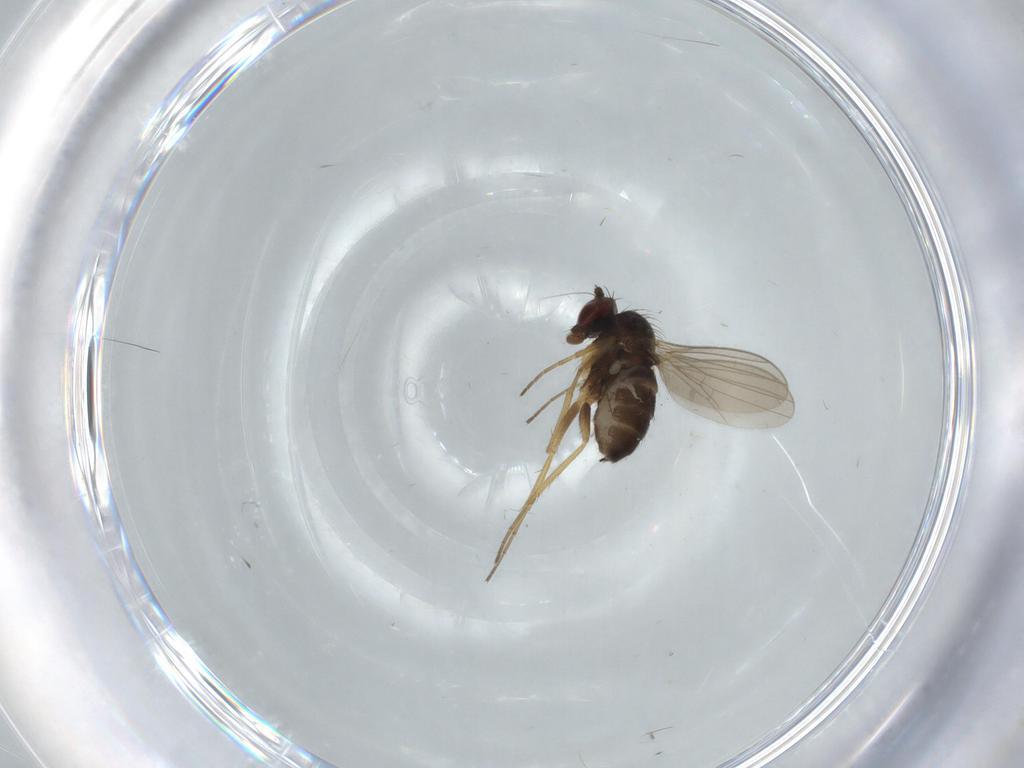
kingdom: Animalia
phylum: Arthropoda
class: Insecta
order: Diptera
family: Dolichopodidae
